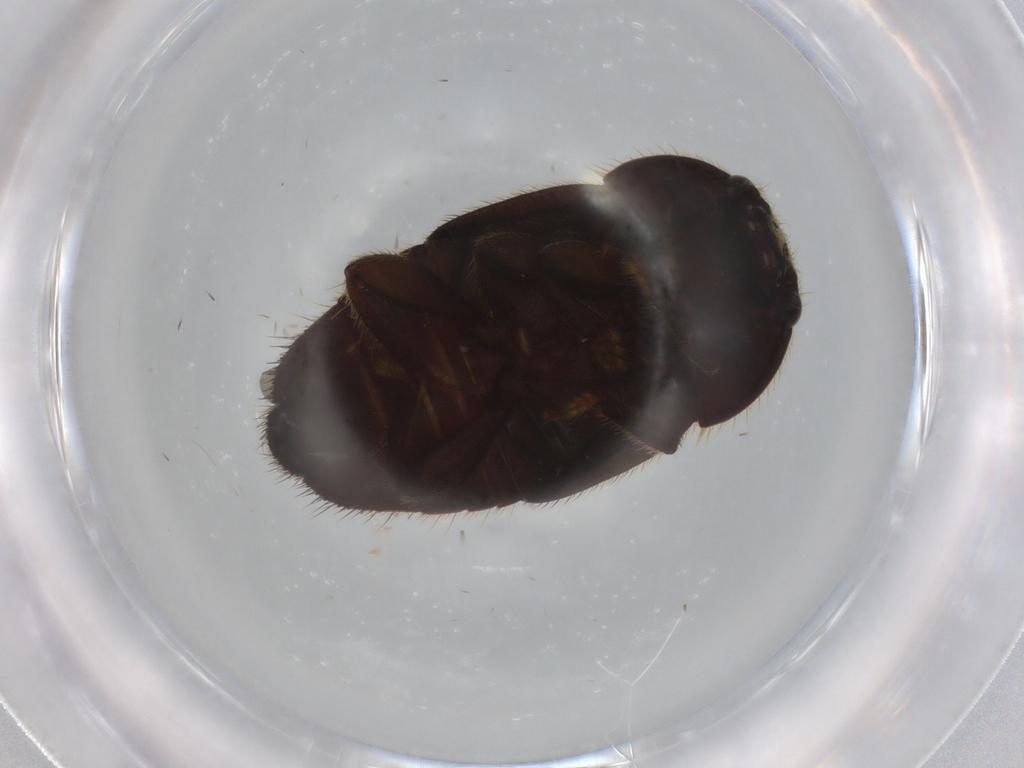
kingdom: Animalia
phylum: Arthropoda
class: Insecta
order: Coleoptera
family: Nitidulidae
